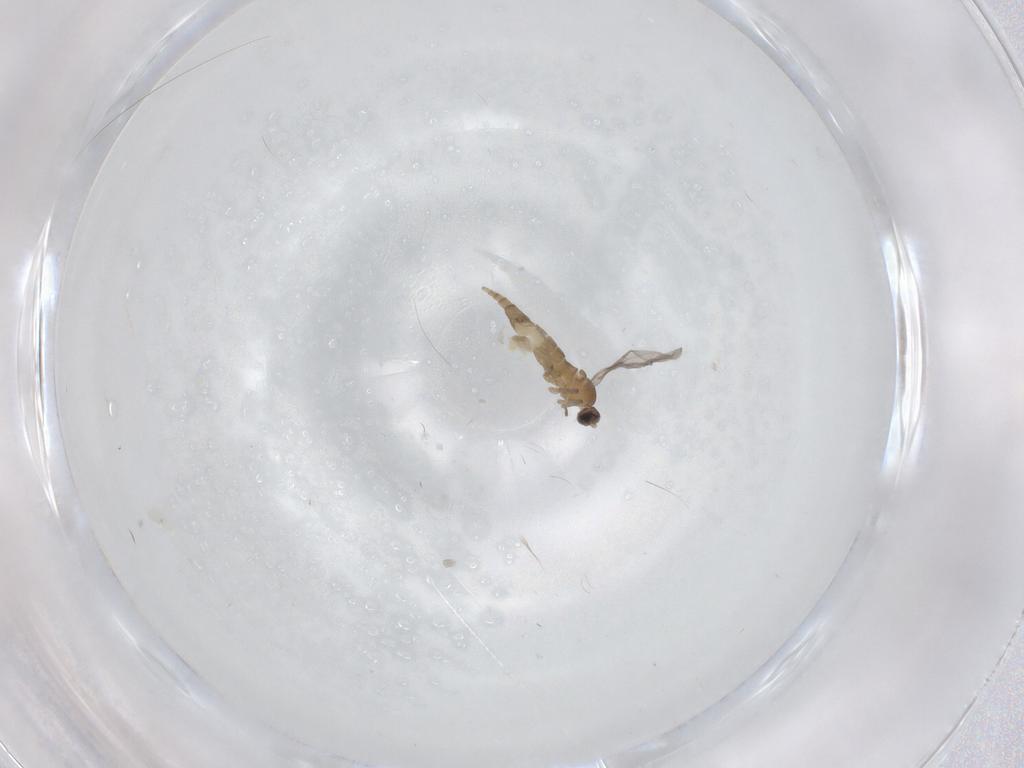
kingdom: Animalia
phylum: Arthropoda
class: Insecta
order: Diptera
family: Cecidomyiidae
